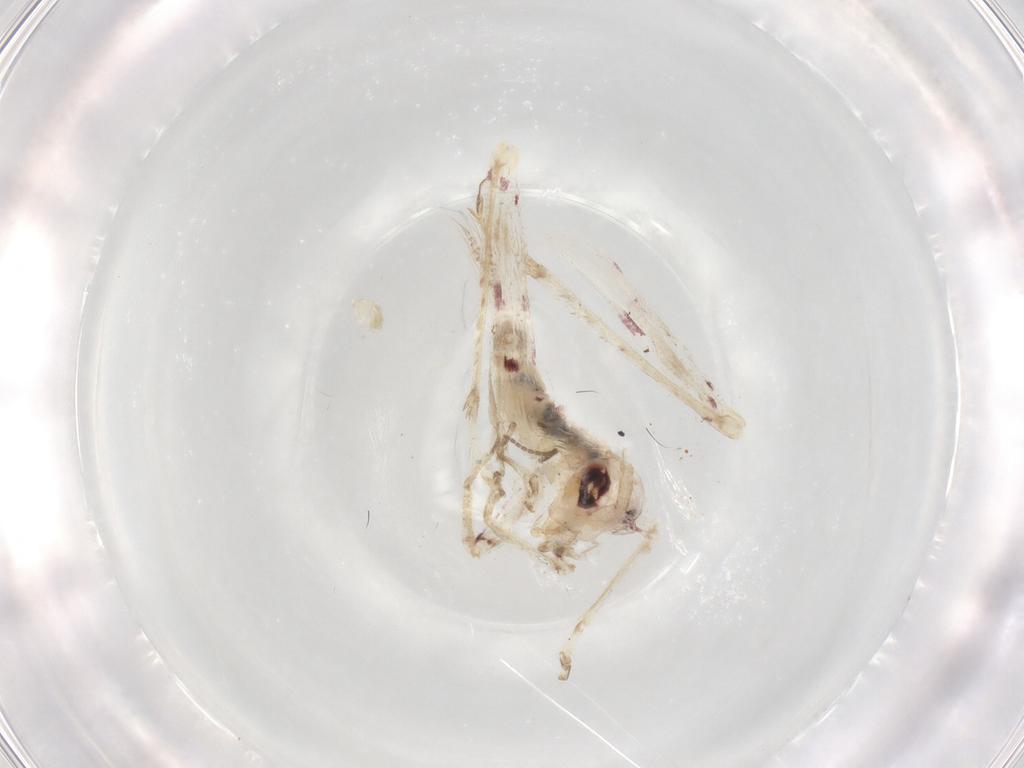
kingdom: Animalia
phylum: Arthropoda
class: Insecta
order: Orthoptera
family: Trigonidiidae
